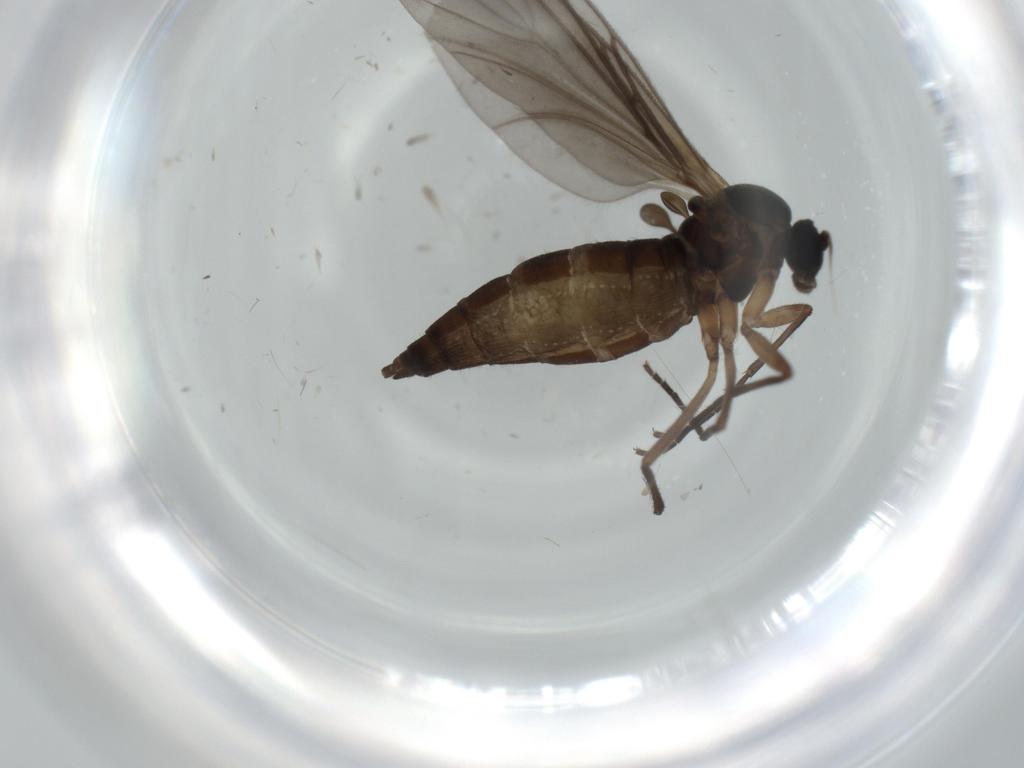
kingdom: Animalia
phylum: Arthropoda
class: Insecta
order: Diptera
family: Sciaridae
